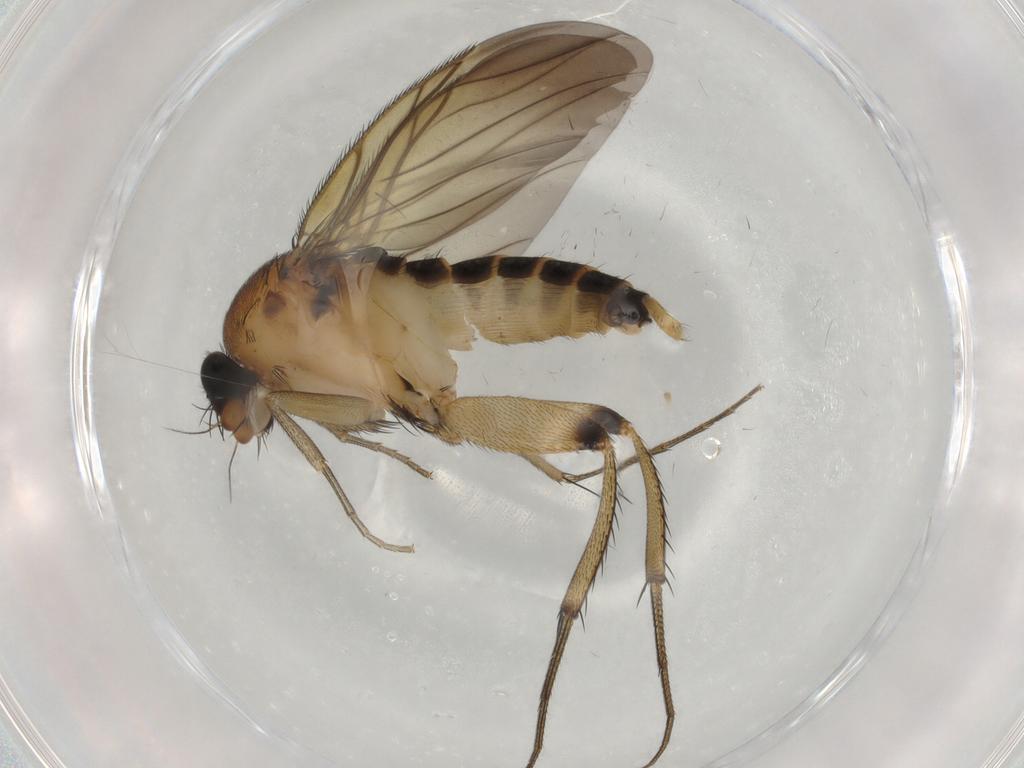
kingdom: Animalia
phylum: Arthropoda
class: Insecta
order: Diptera
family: Phoridae
